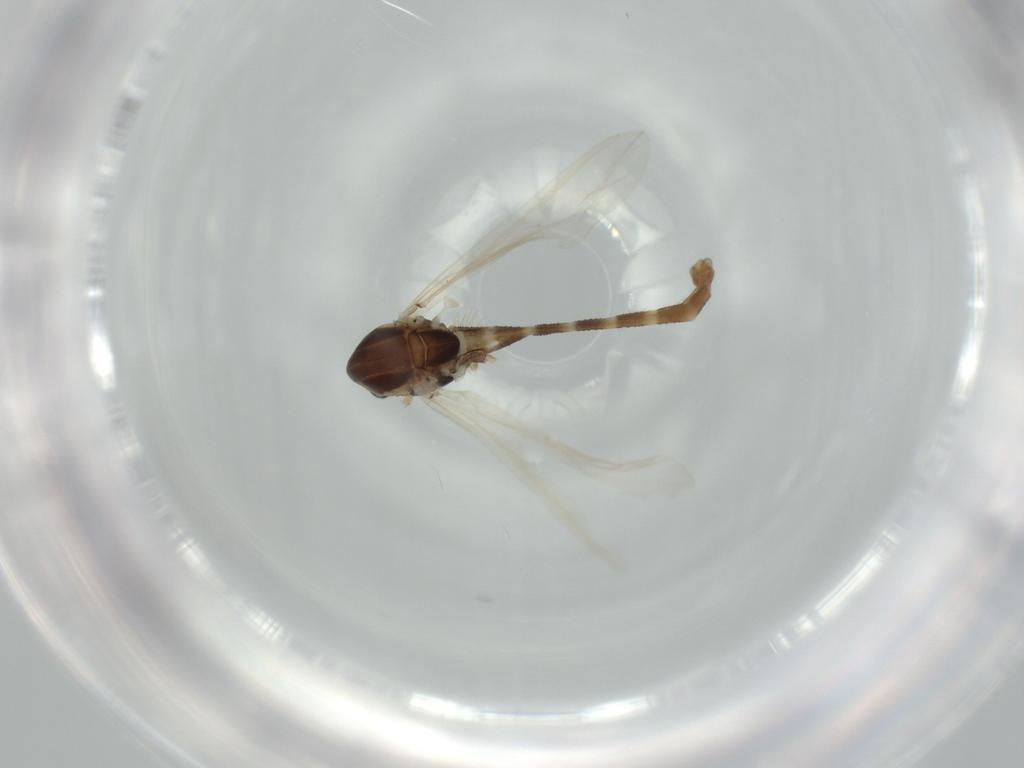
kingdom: Animalia
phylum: Arthropoda
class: Insecta
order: Diptera
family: Chironomidae
